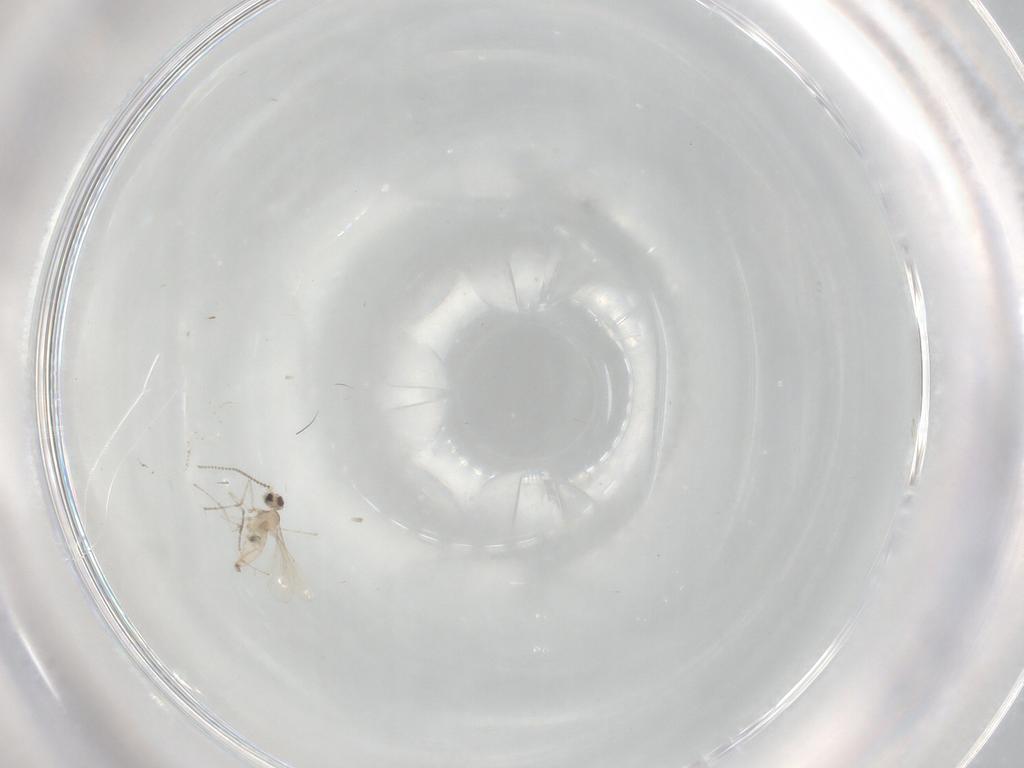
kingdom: Animalia
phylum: Arthropoda
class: Insecta
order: Diptera
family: Cecidomyiidae
